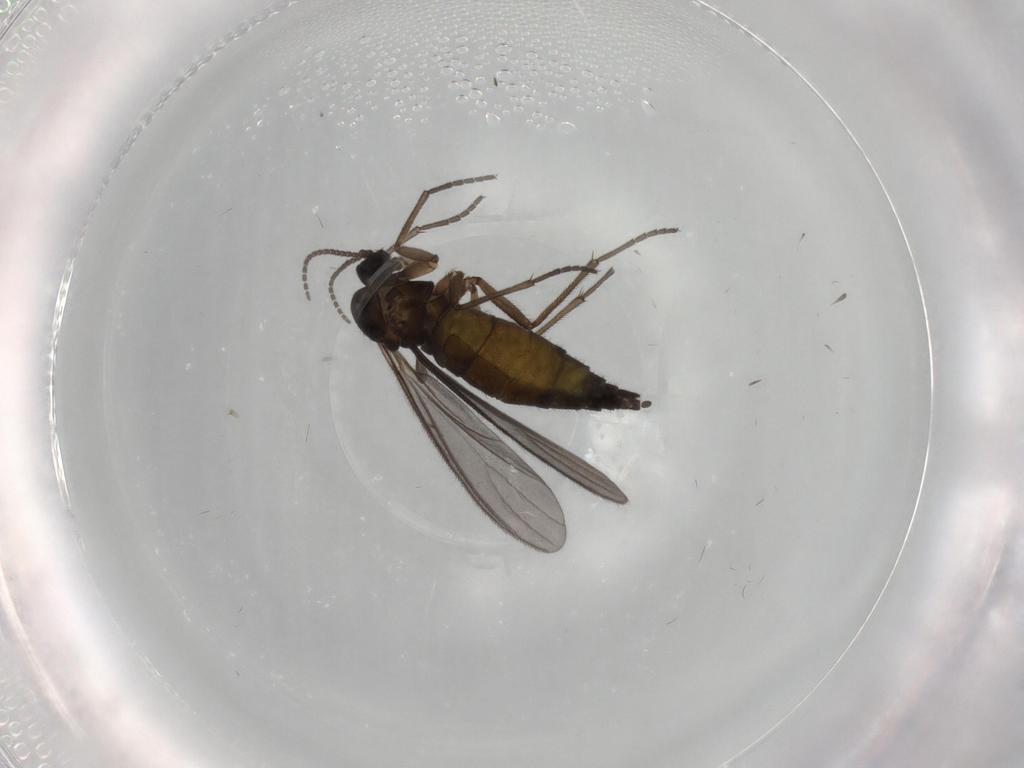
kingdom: Animalia
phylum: Arthropoda
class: Insecta
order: Diptera
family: Sciaridae
